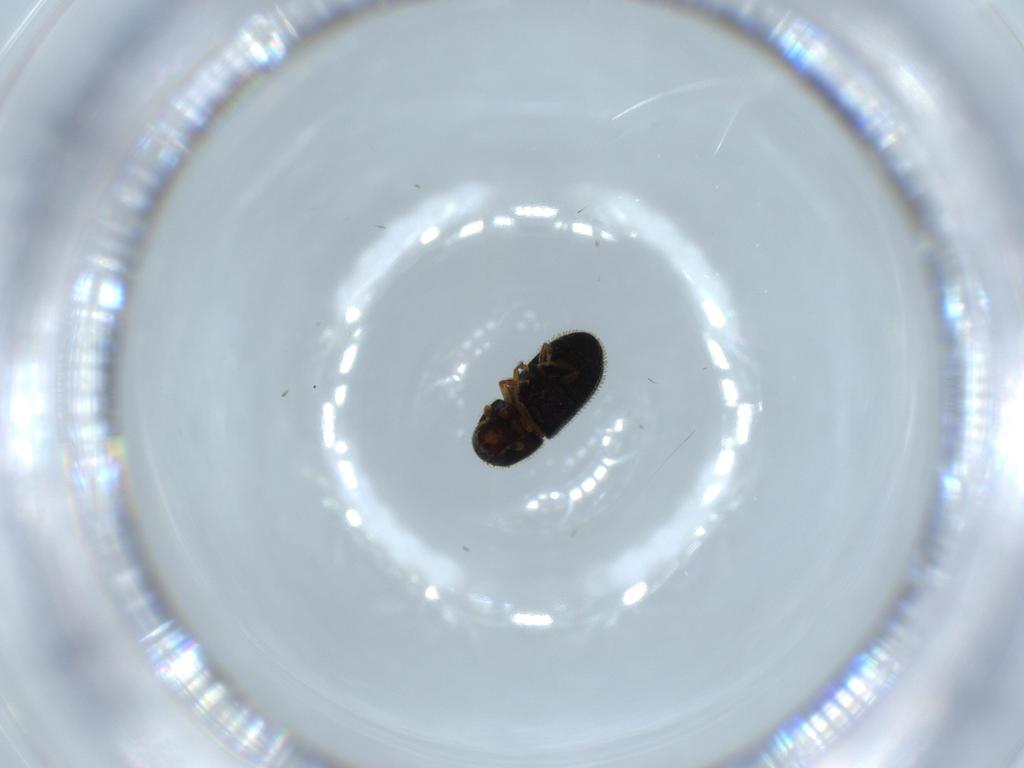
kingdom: Animalia
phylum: Arthropoda
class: Insecta
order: Coleoptera
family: Curculionidae
